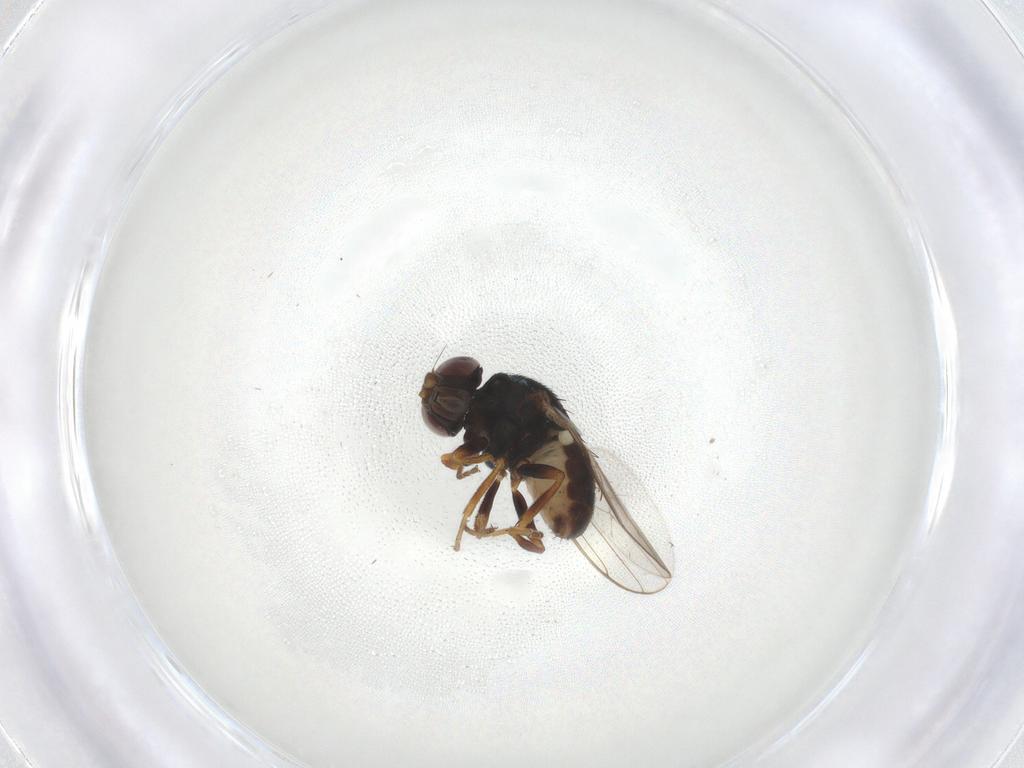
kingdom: Animalia
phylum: Arthropoda
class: Insecta
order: Diptera
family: Chloropidae
